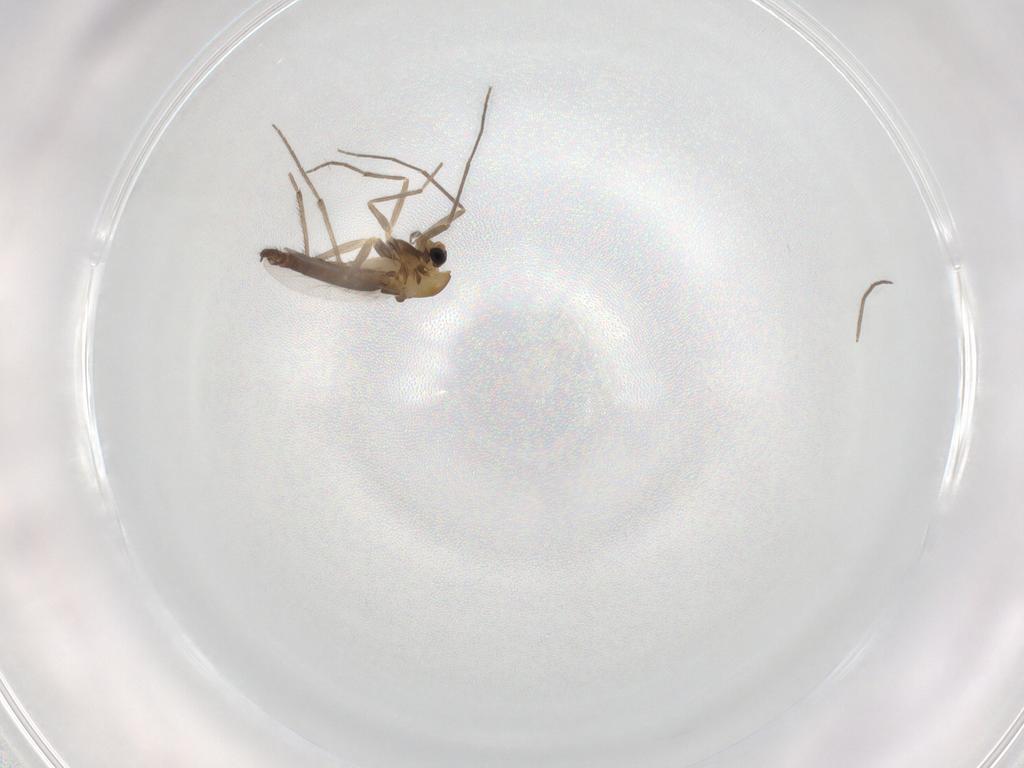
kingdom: Animalia
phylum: Arthropoda
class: Insecta
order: Diptera
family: Chironomidae
